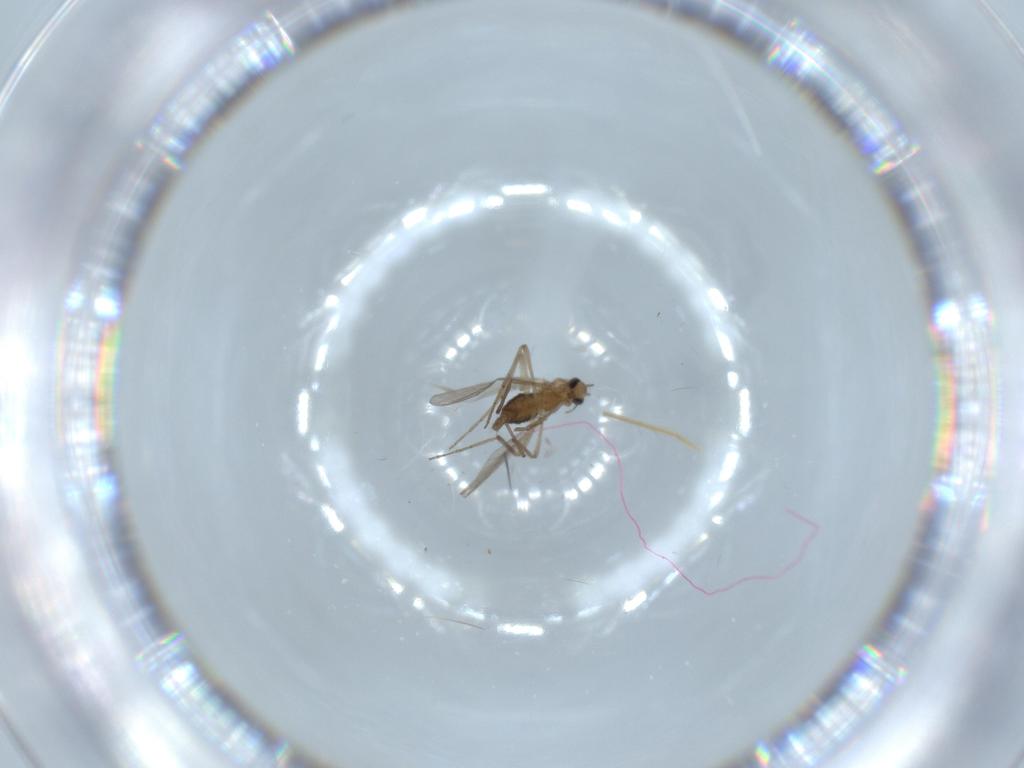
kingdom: Animalia
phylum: Arthropoda
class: Insecta
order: Diptera
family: Chironomidae
